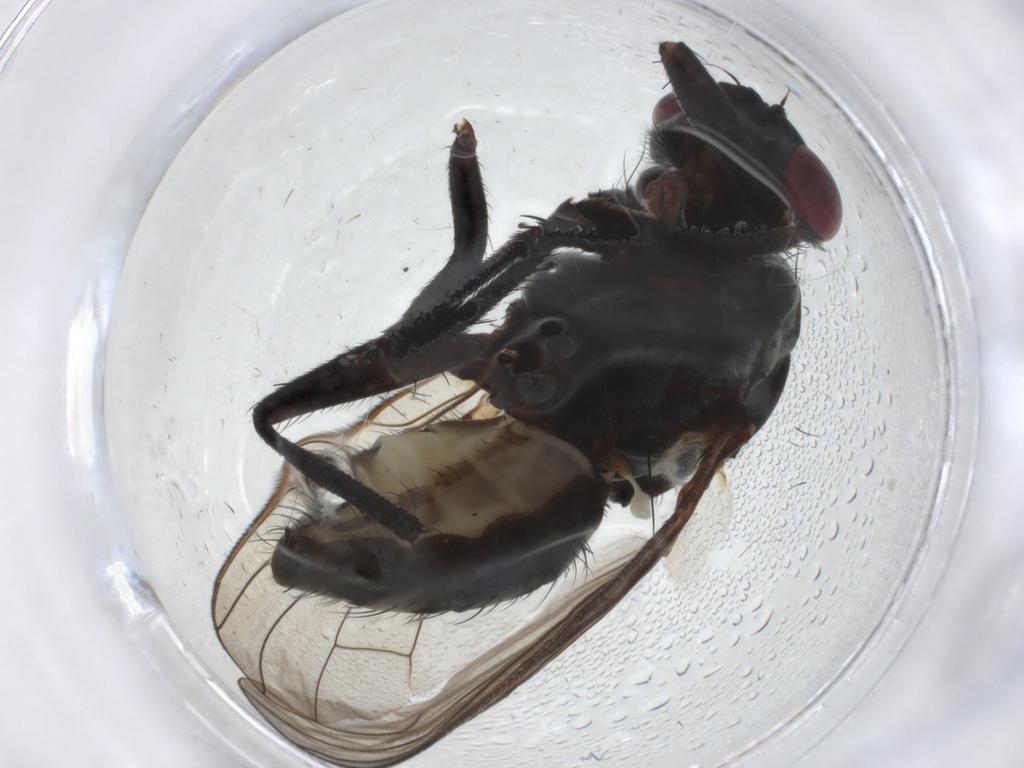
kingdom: Animalia
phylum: Arthropoda
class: Insecta
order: Diptera
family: Anthomyiidae
